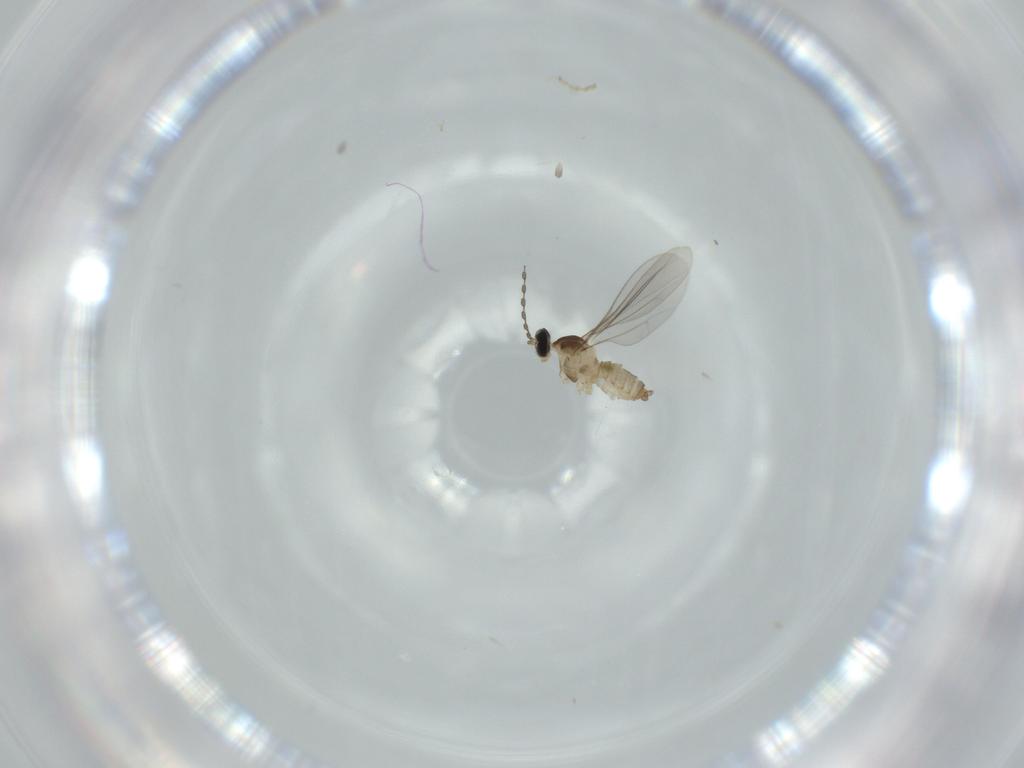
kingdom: Animalia
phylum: Arthropoda
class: Insecta
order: Diptera
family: Cecidomyiidae
